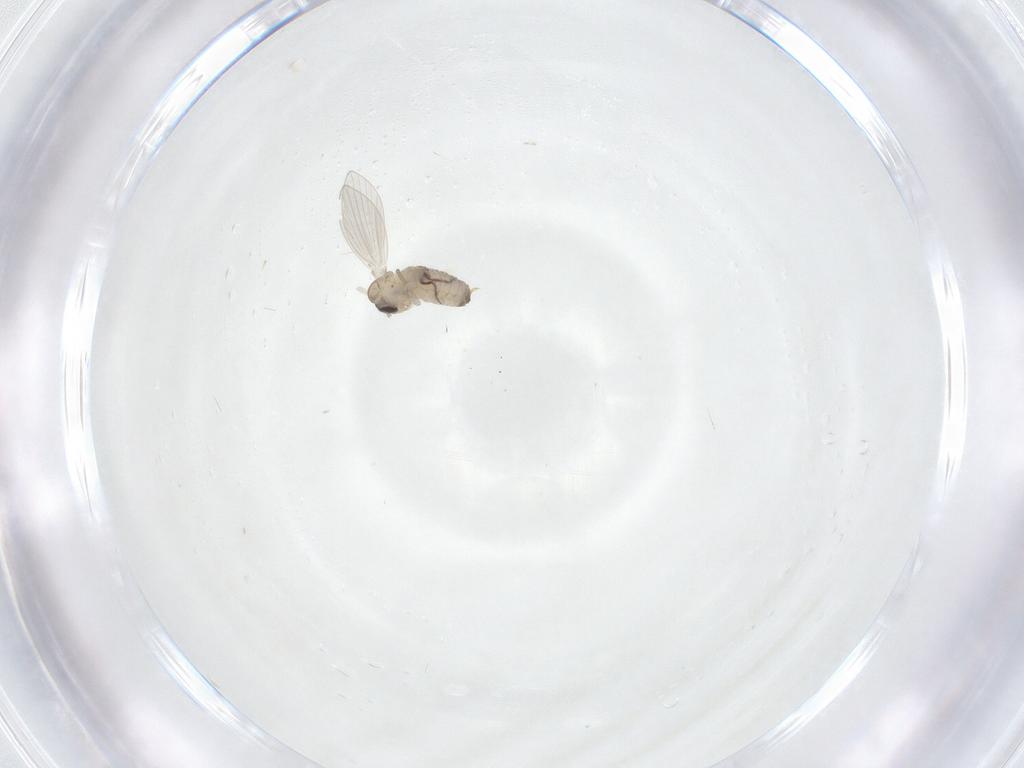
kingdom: Animalia
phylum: Arthropoda
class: Insecta
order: Diptera
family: Psychodidae
